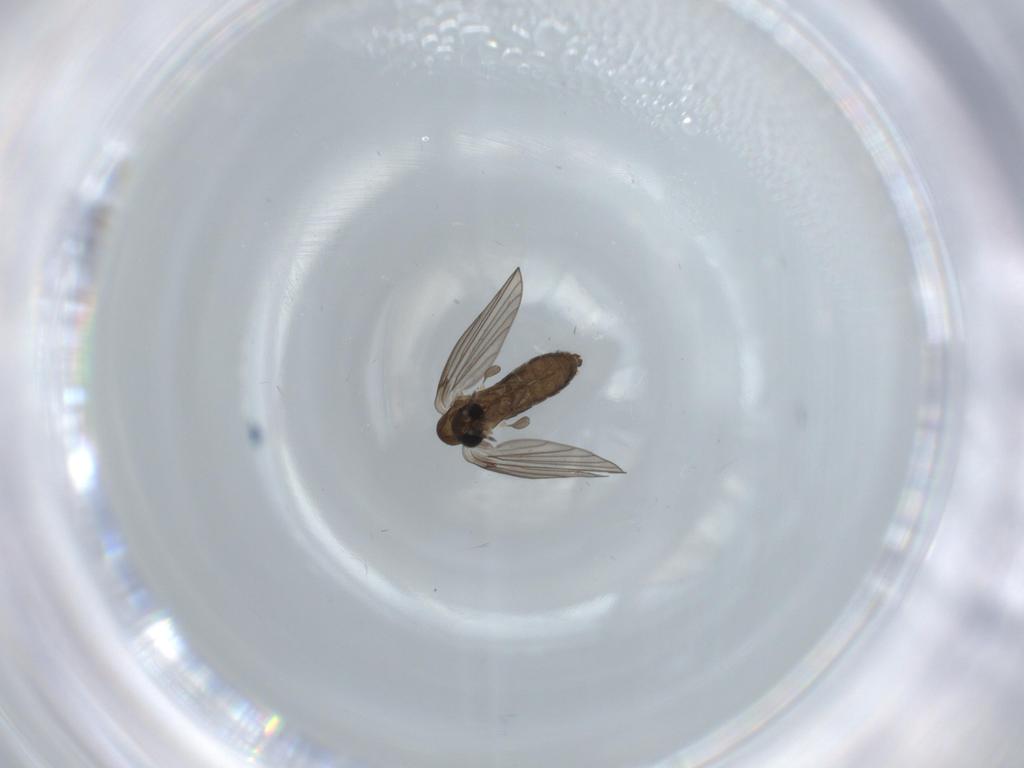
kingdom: Animalia
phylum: Arthropoda
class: Insecta
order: Diptera
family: Psychodidae
